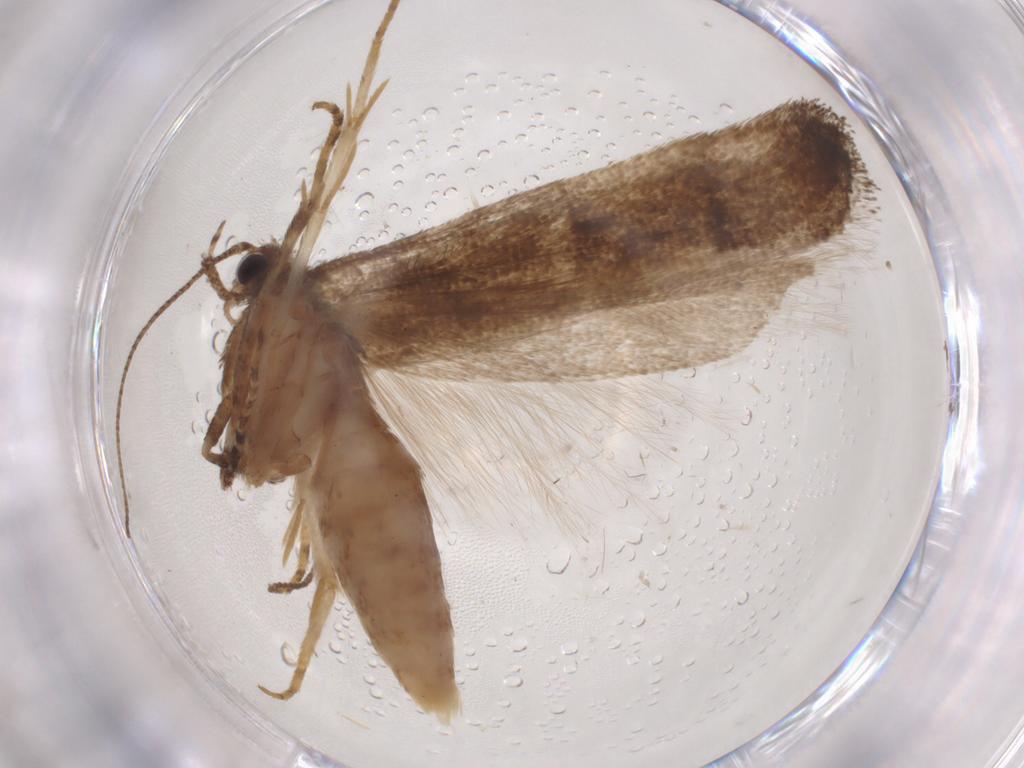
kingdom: Animalia
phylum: Arthropoda
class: Insecta
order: Lepidoptera
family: Gelechiidae
